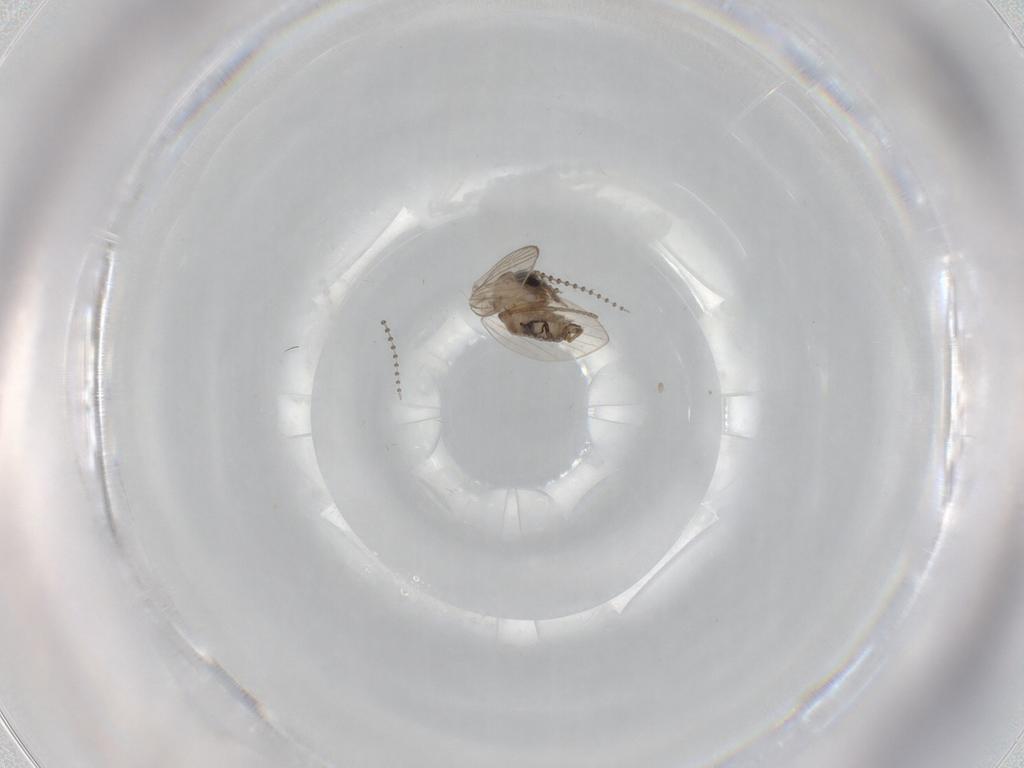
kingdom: Animalia
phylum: Arthropoda
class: Insecta
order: Diptera
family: Psychodidae
